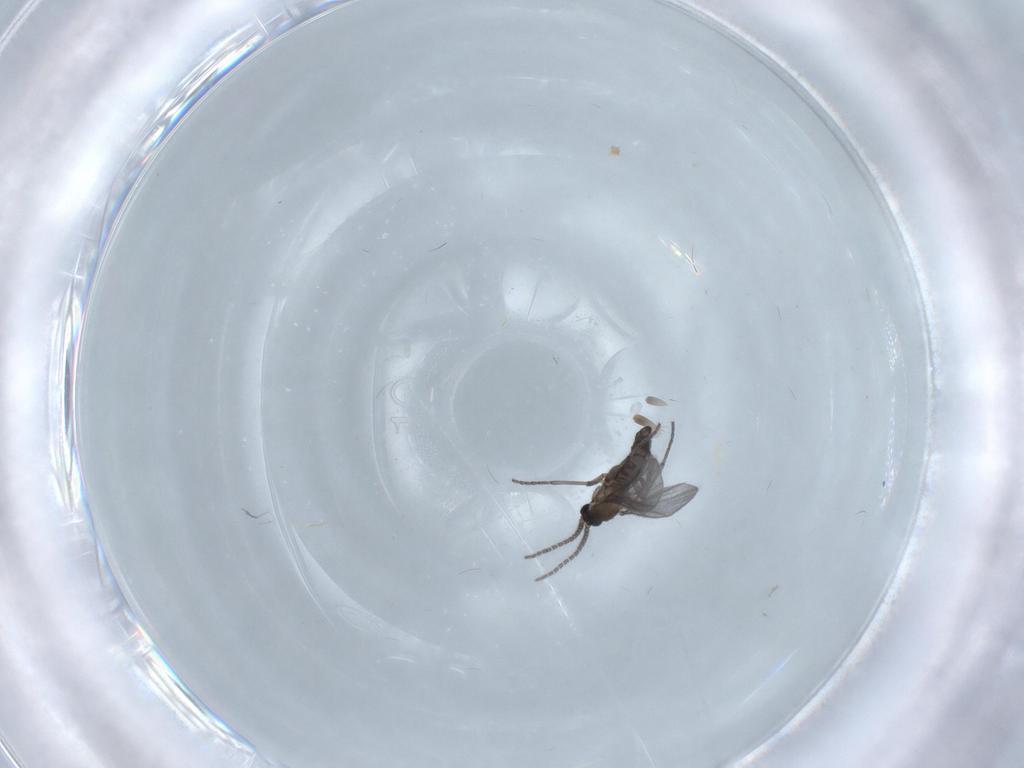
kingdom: Animalia
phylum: Arthropoda
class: Insecta
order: Diptera
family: Sciaridae
